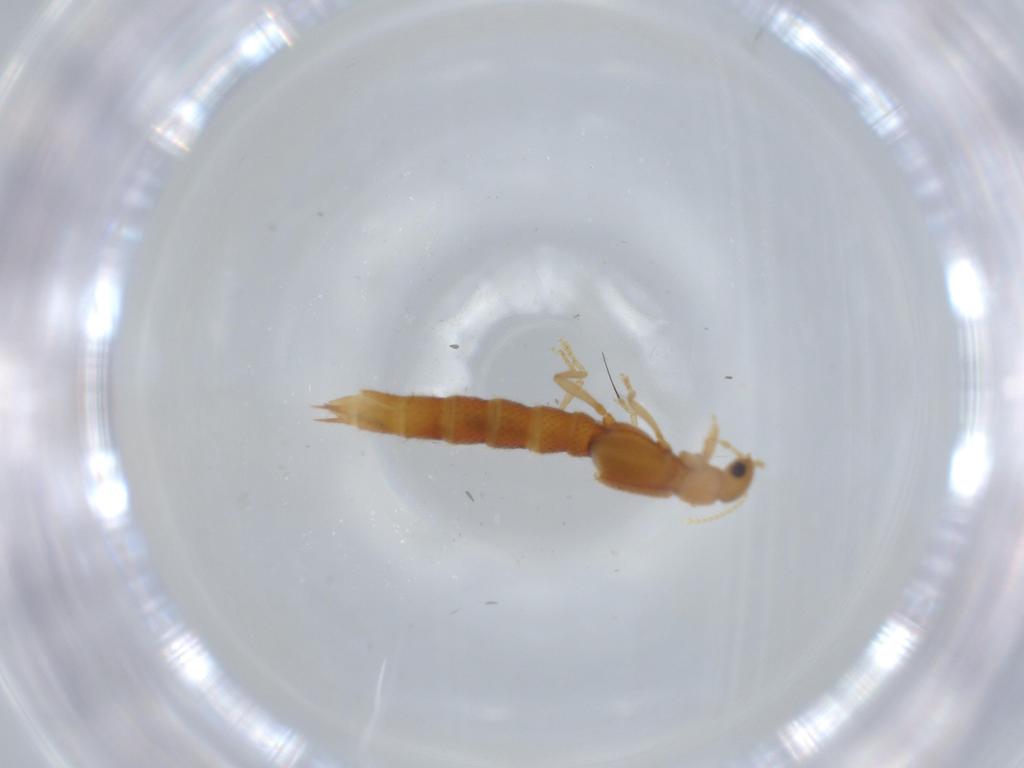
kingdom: Animalia
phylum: Arthropoda
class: Insecta
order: Coleoptera
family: Staphylinidae
